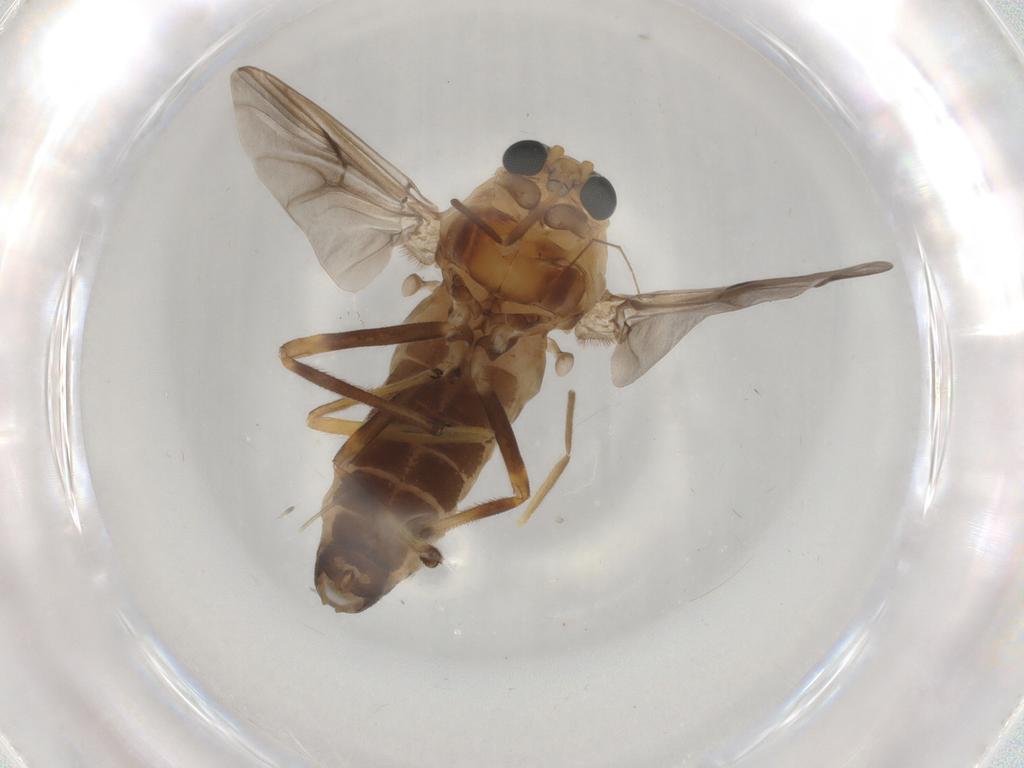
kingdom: Animalia
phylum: Arthropoda
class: Insecta
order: Diptera
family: Chironomidae
